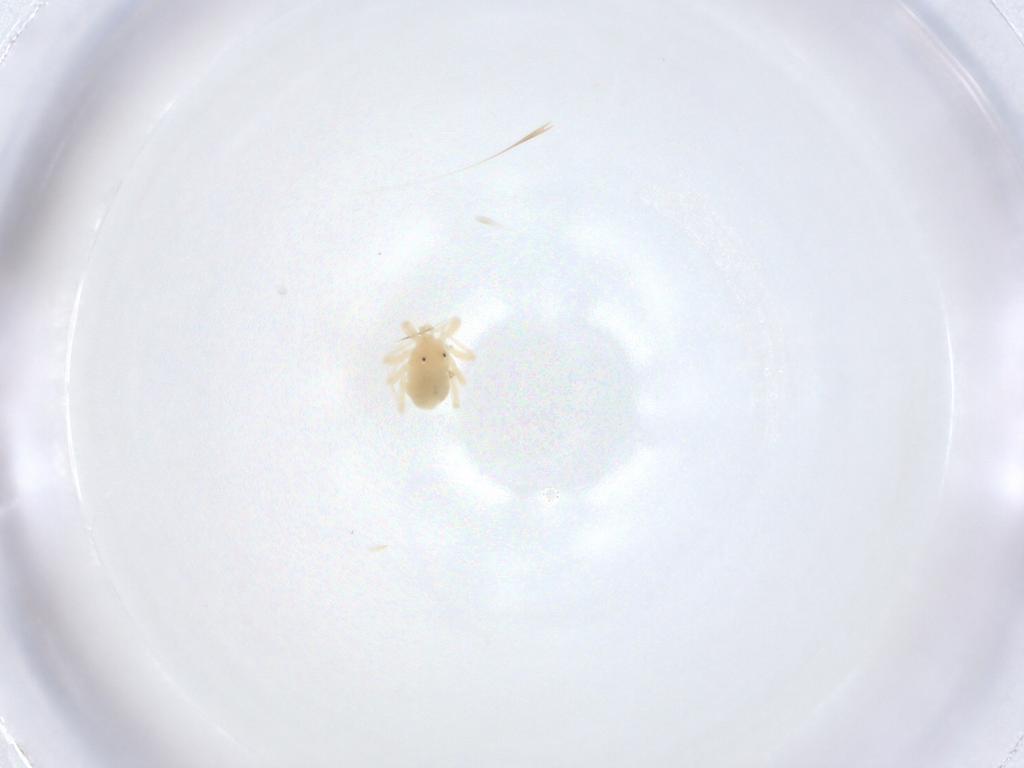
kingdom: Animalia
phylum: Arthropoda
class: Arachnida
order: Trombidiformes
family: Anystidae
